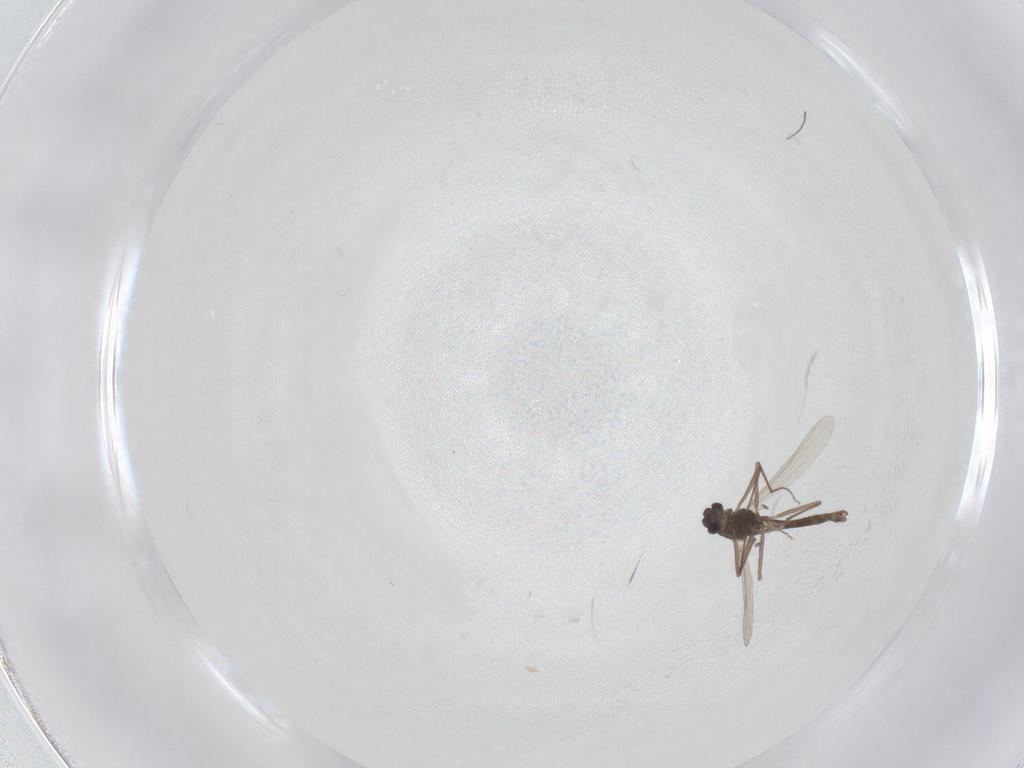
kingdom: Animalia
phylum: Arthropoda
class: Insecta
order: Diptera
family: Chironomidae
